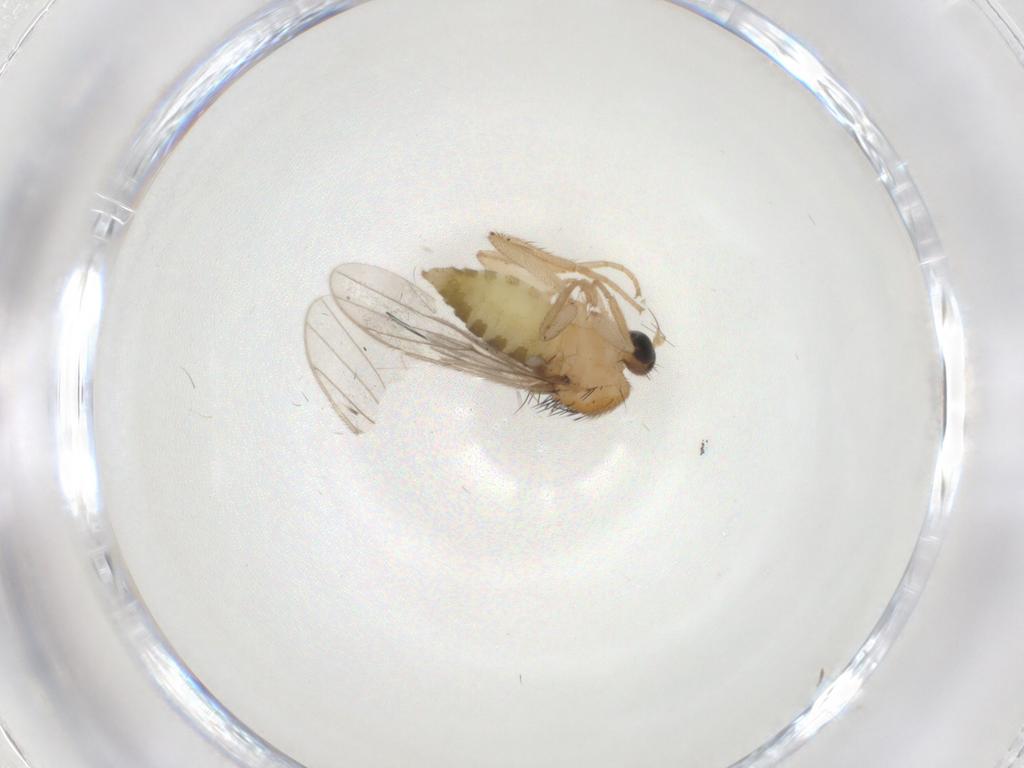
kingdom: Animalia
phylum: Arthropoda
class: Insecta
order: Diptera
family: Hybotidae
